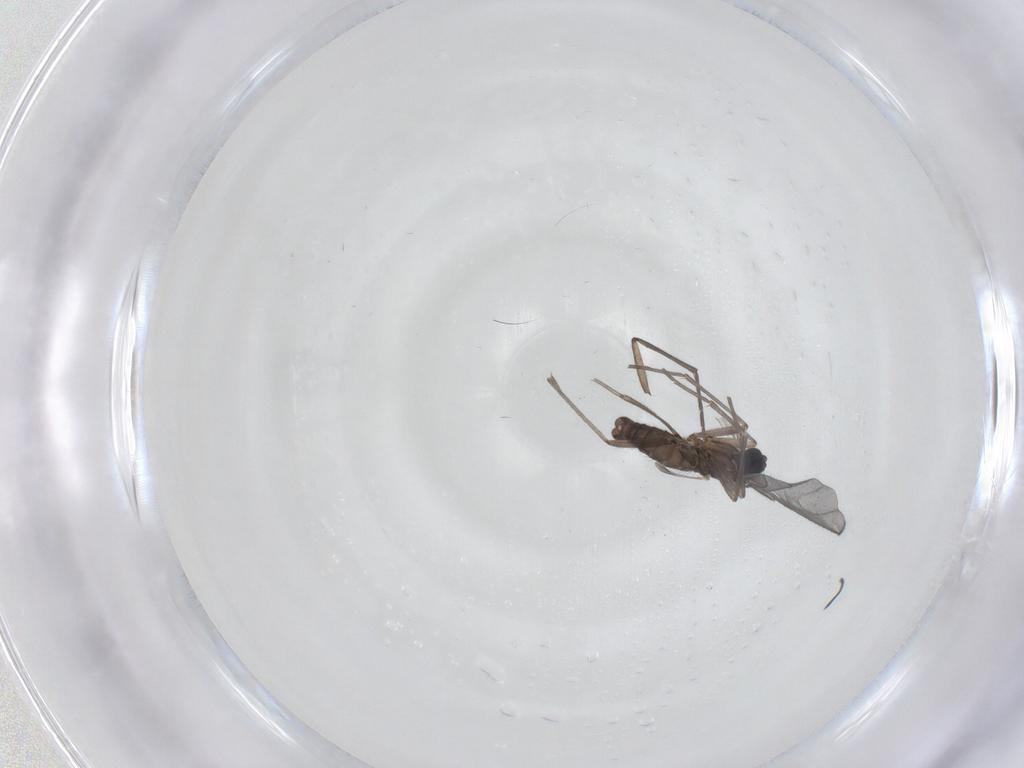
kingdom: Animalia
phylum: Arthropoda
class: Insecta
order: Diptera
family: Sciaridae
